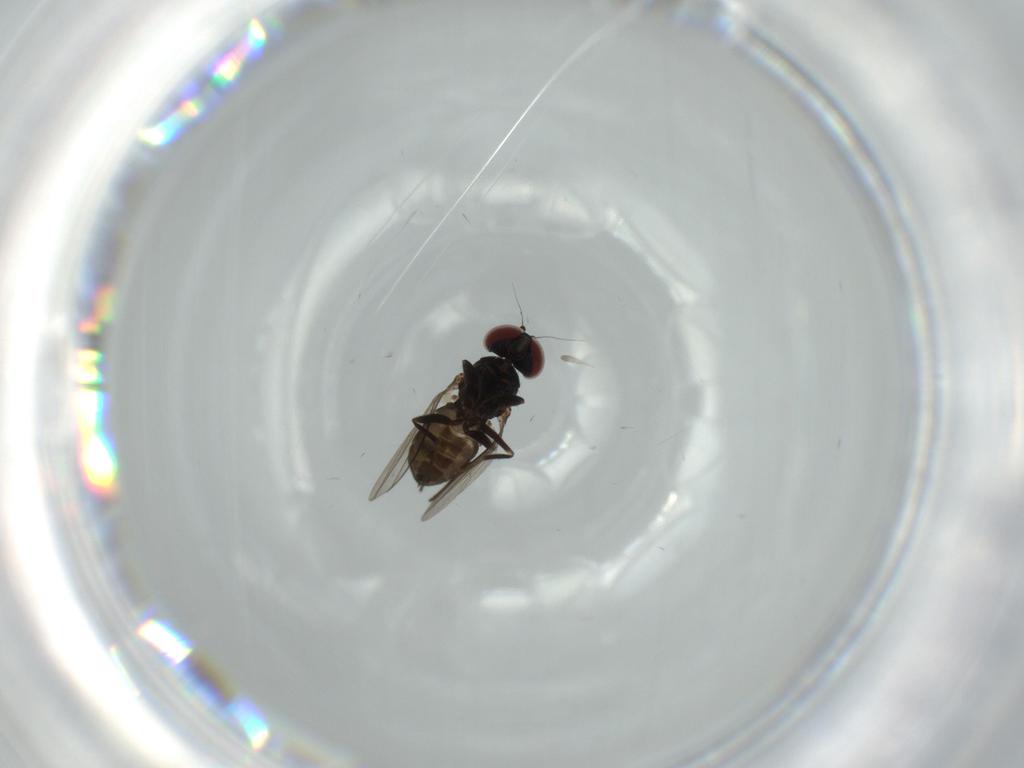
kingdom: Animalia
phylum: Arthropoda
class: Insecta
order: Diptera
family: Dolichopodidae
